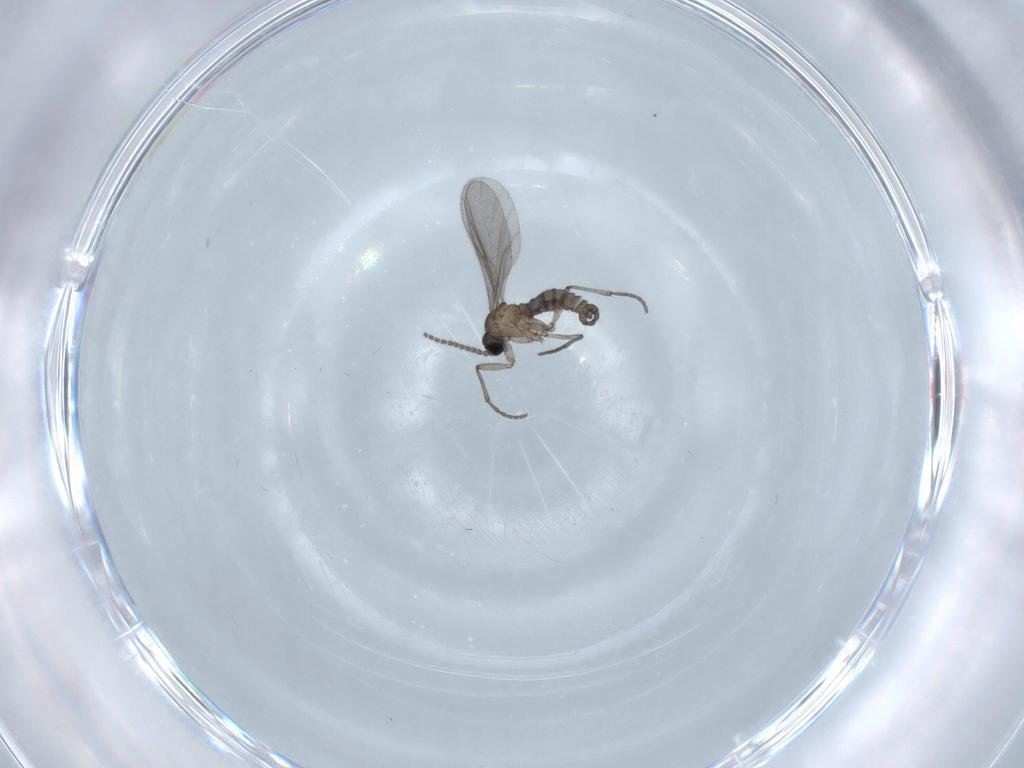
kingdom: Animalia
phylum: Arthropoda
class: Insecta
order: Diptera
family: Sciaridae
